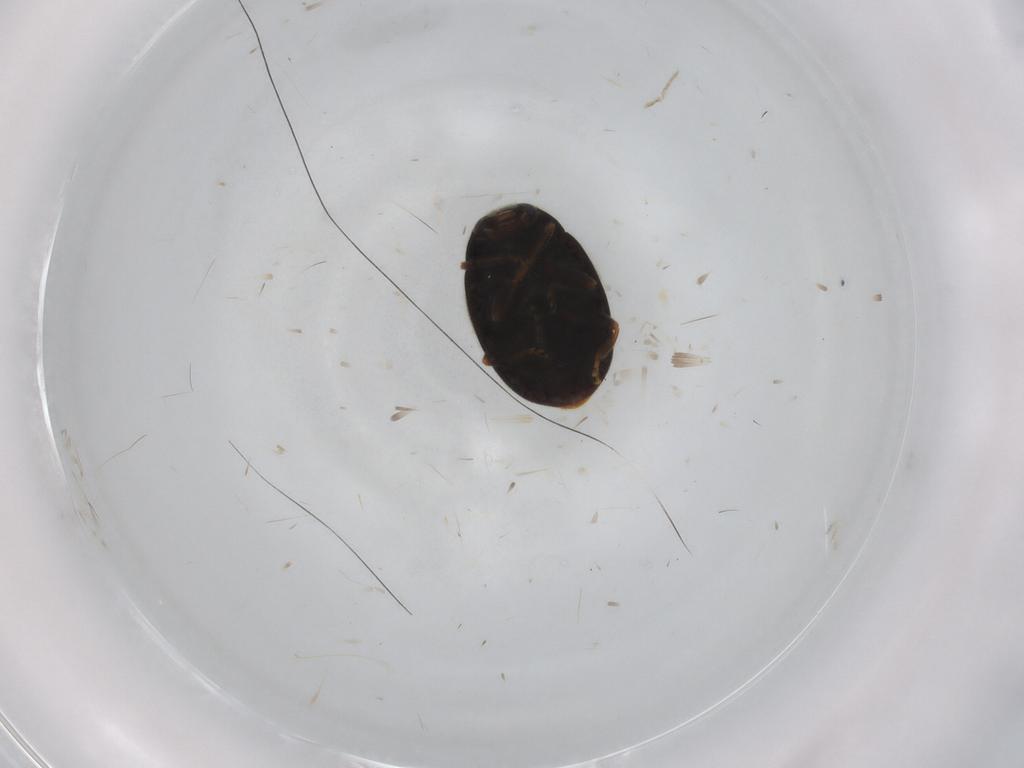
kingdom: Animalia
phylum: Arthropoda
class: Insecta
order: Coleoptera
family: Coccinellidae
